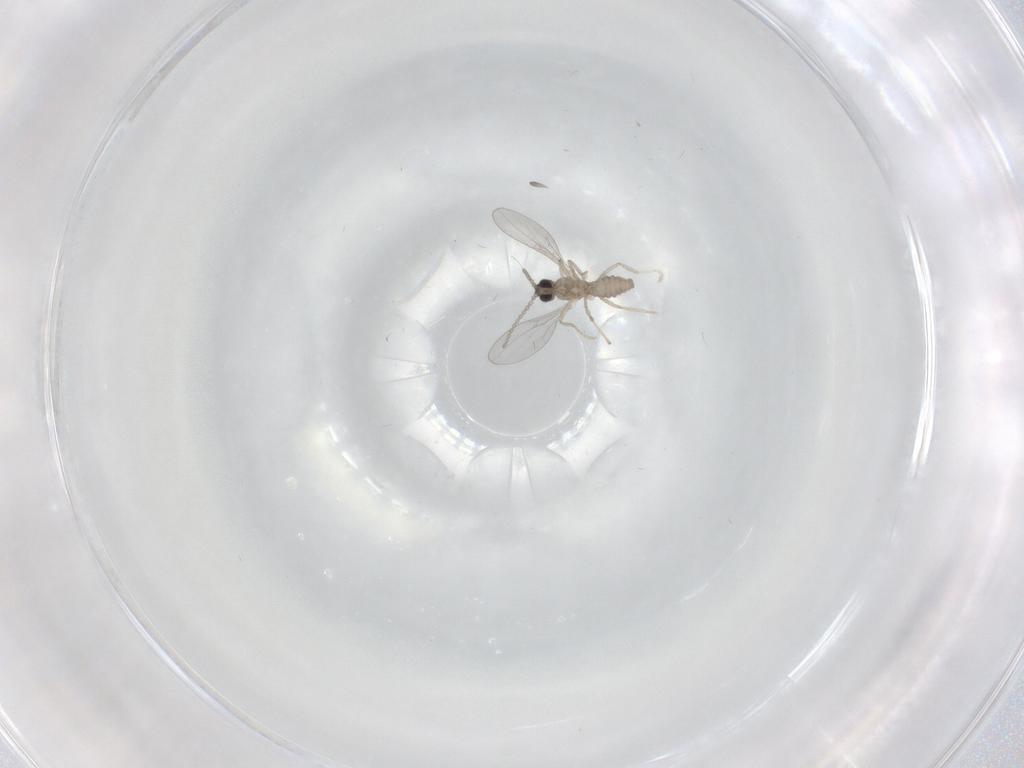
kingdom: Animalia
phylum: Arthropoda
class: Insecta
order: Diptera
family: Cecidomyiidae
